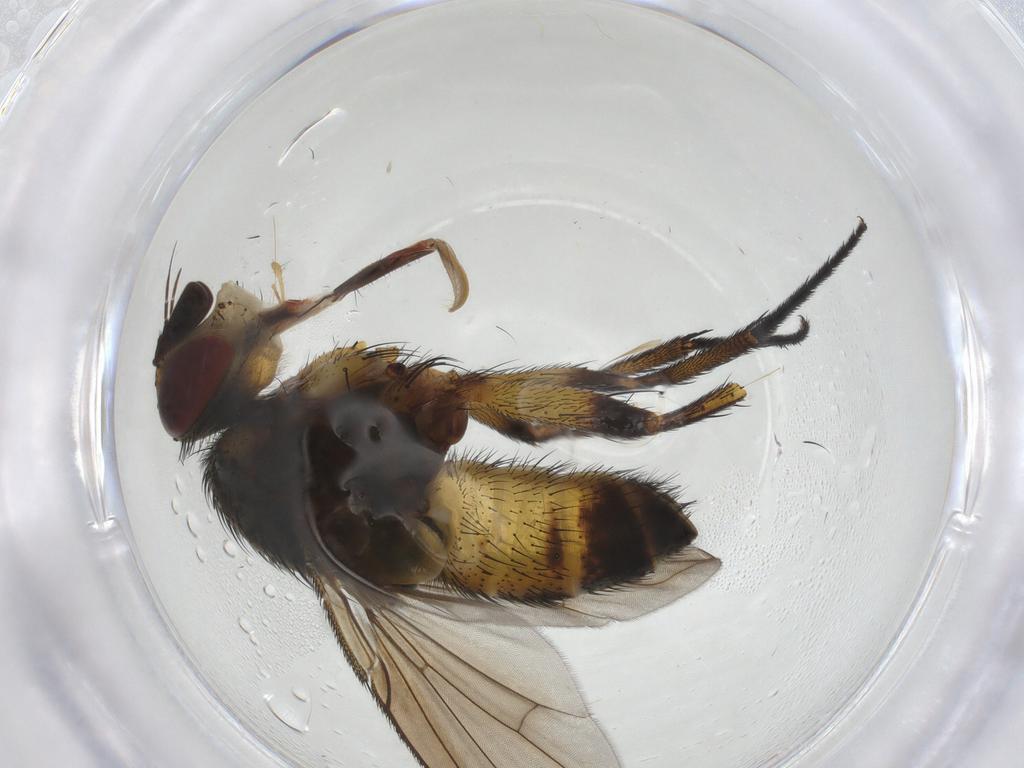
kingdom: Animalia
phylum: Arthropoda
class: Insecta
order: Diptera
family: Tachinidae
